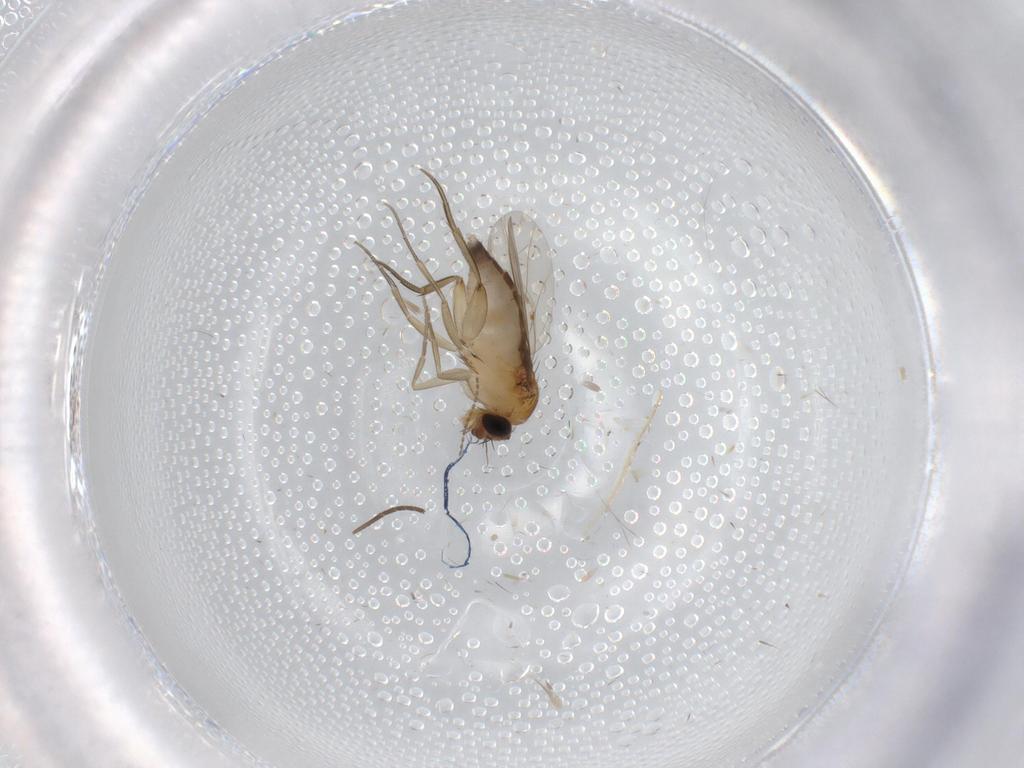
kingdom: Animalia
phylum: Arthropoda
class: Insecta
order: Diptera
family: Phoridae
